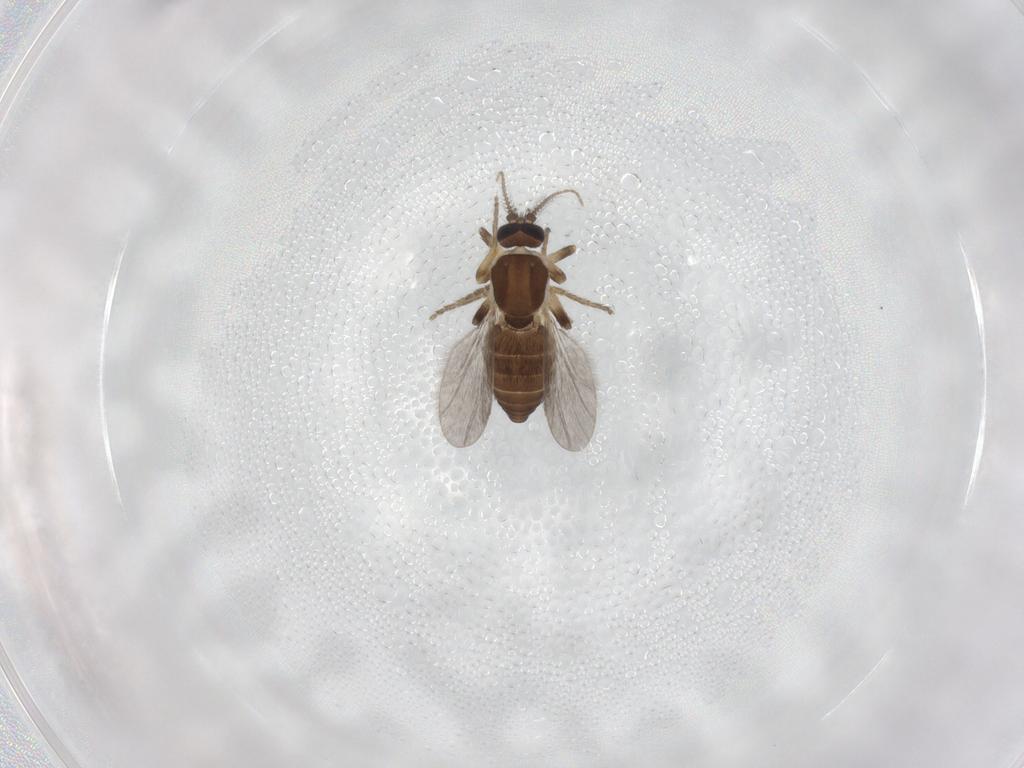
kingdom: Animalia
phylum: Arthropoda
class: Insecta
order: Diptera
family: Ceratopogonidae
